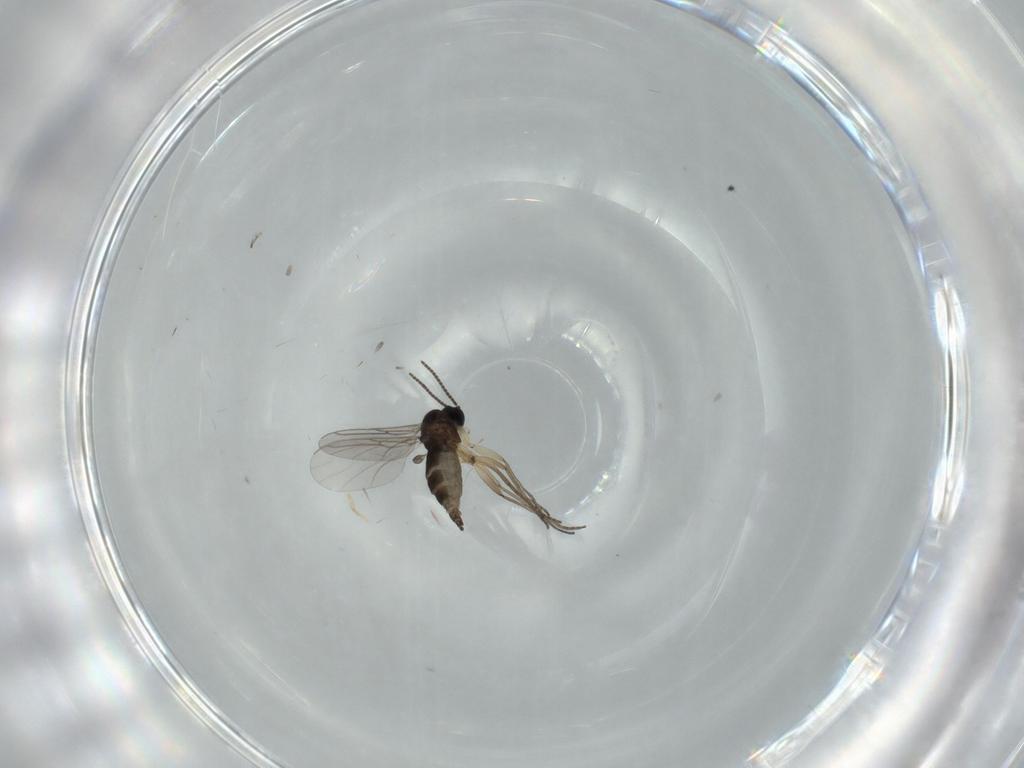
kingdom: Animalia
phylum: Arthropoda
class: Insecta
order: Diptera
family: Sciaridae
